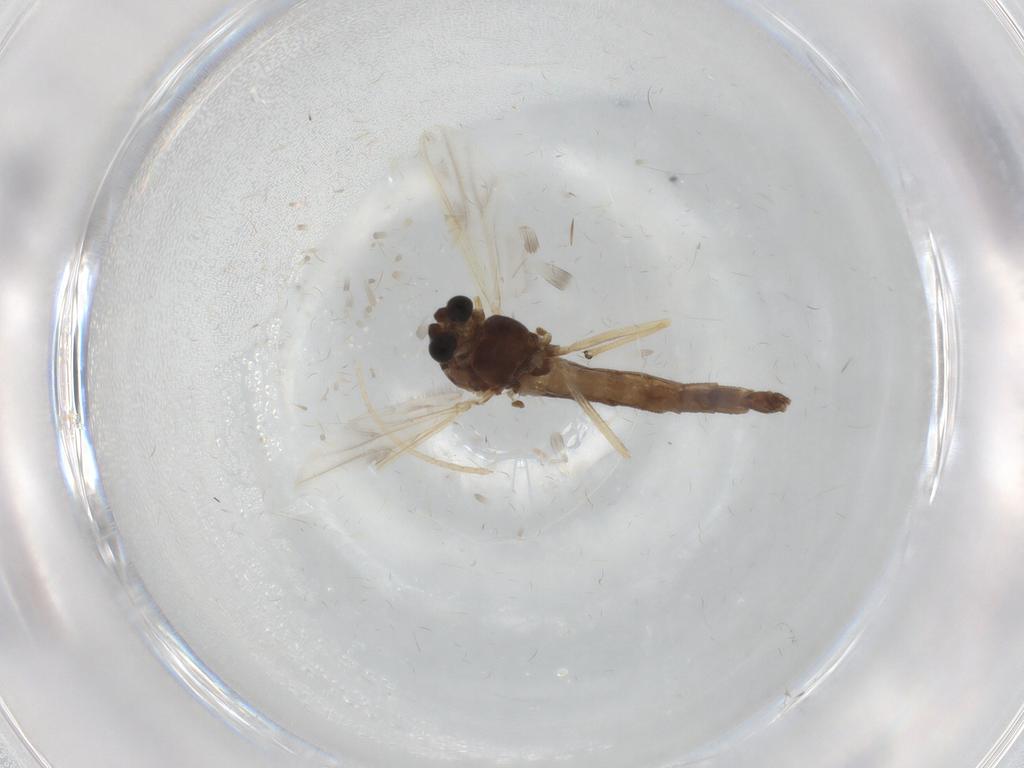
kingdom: Animalia
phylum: Arthropoda
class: Insecta
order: Diptera
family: Chironomidae
